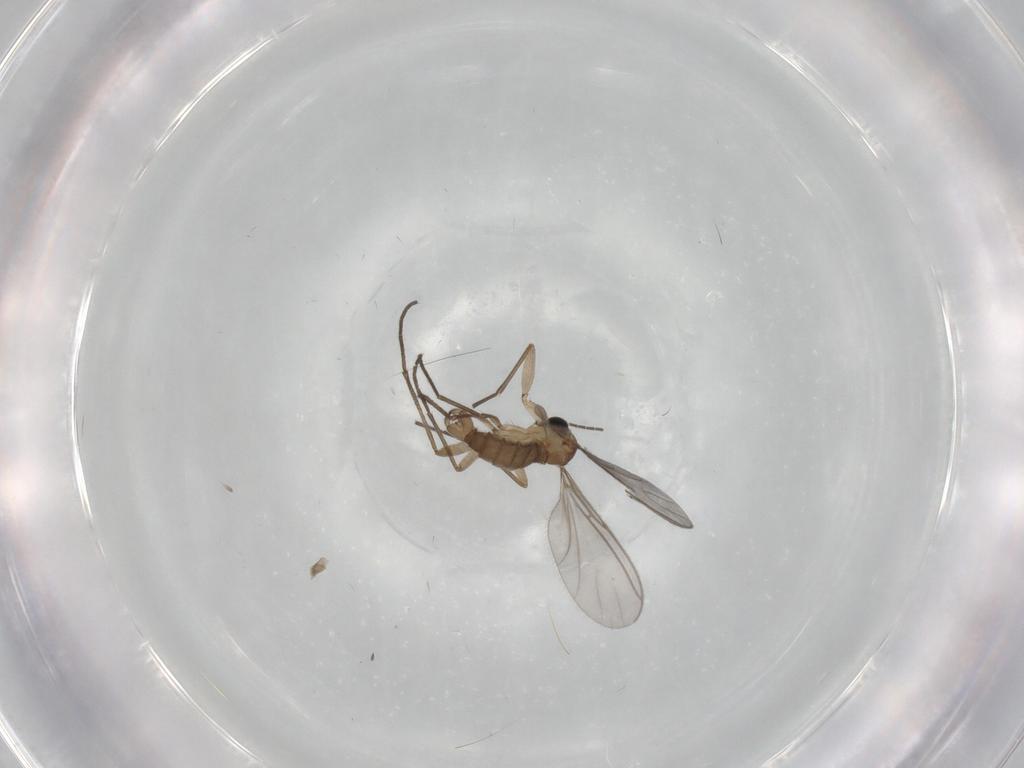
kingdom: Animalia
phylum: Arthropoda
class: Insecta
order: Diptera
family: Sciaridae
